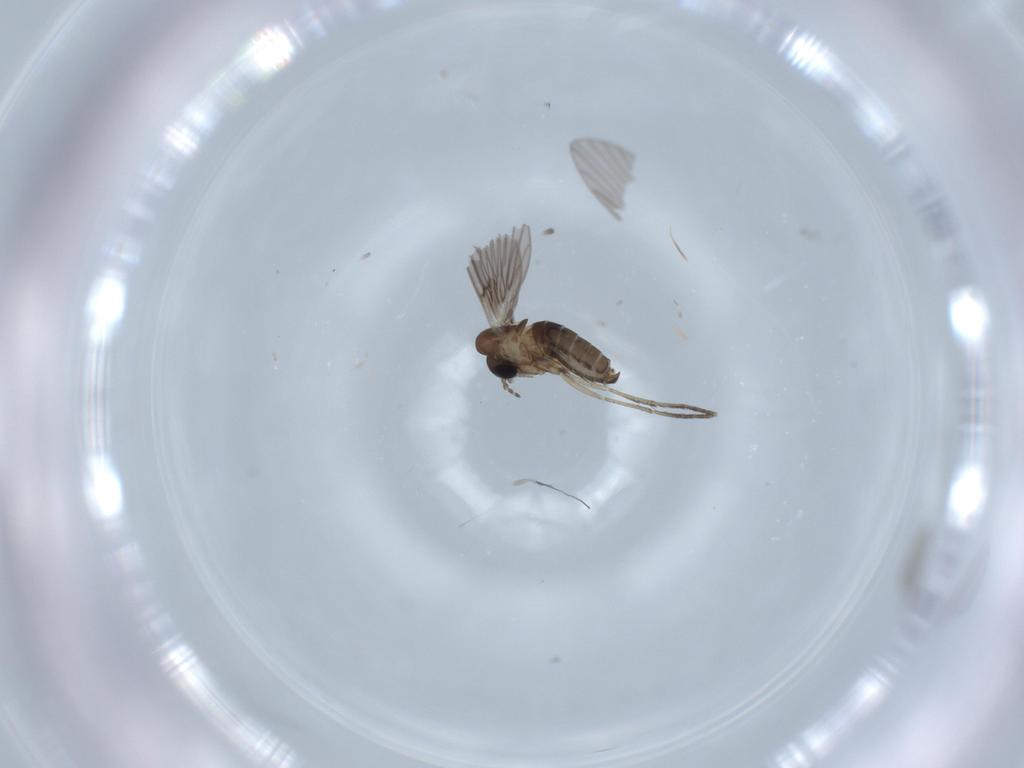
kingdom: Animalia
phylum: Arthropoda
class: Insecta
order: Diptera
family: Psychodidae
